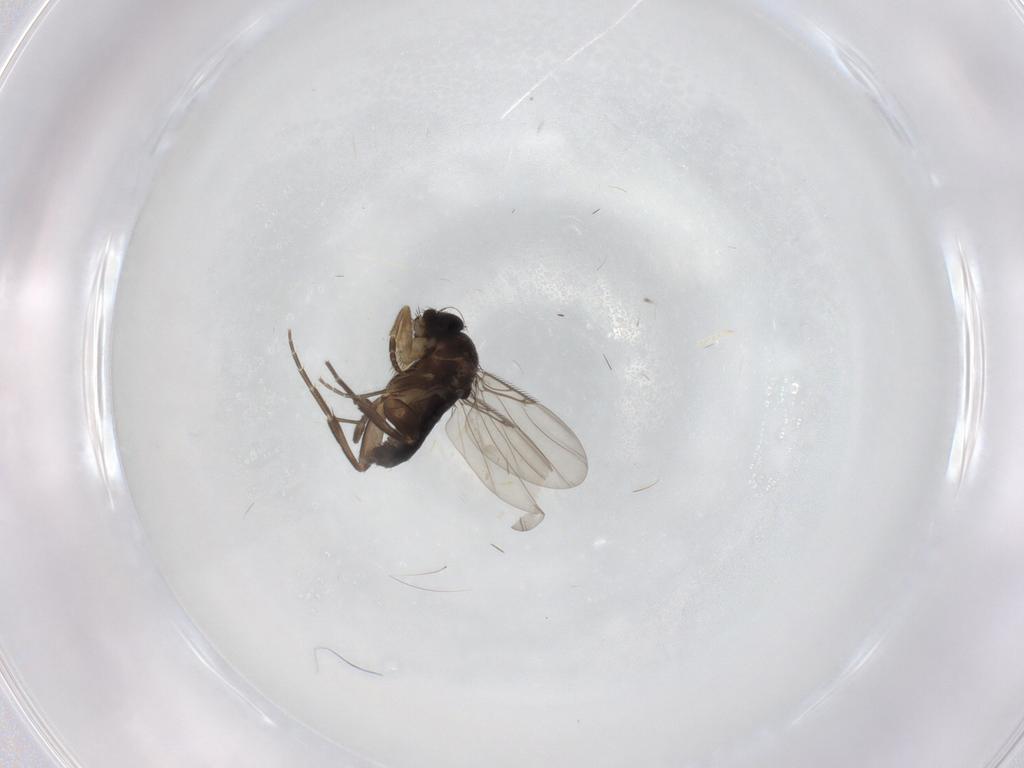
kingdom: Animalia
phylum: Arthropoda
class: Insecta
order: Diptera
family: Phoridae
